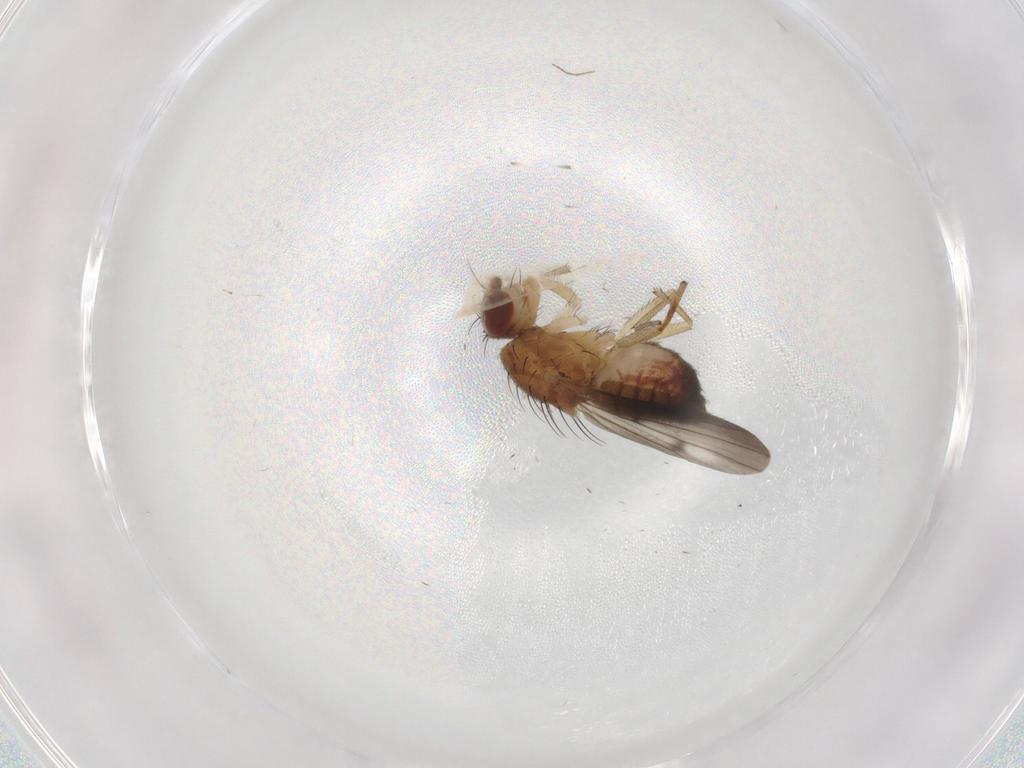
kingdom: Animalia
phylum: Arthropoda
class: Insecta
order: Diptera
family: Heleomyzidae
